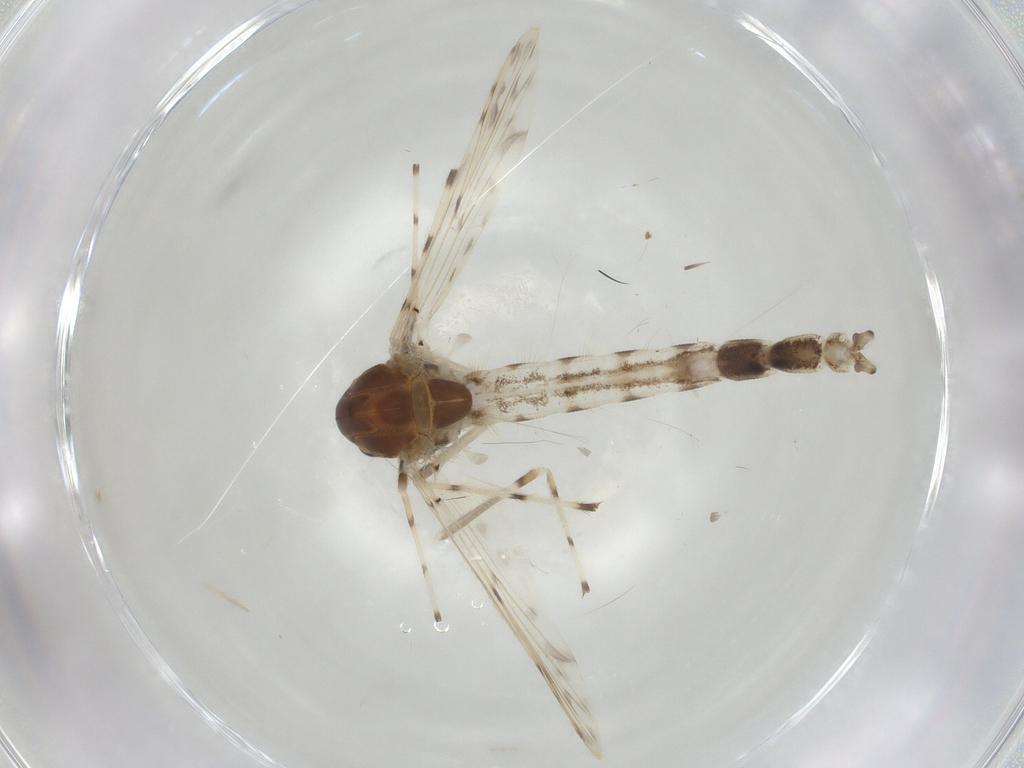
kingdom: Animalia
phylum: Arthropoda
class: Insecta
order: Diptera
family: Chironomidae
